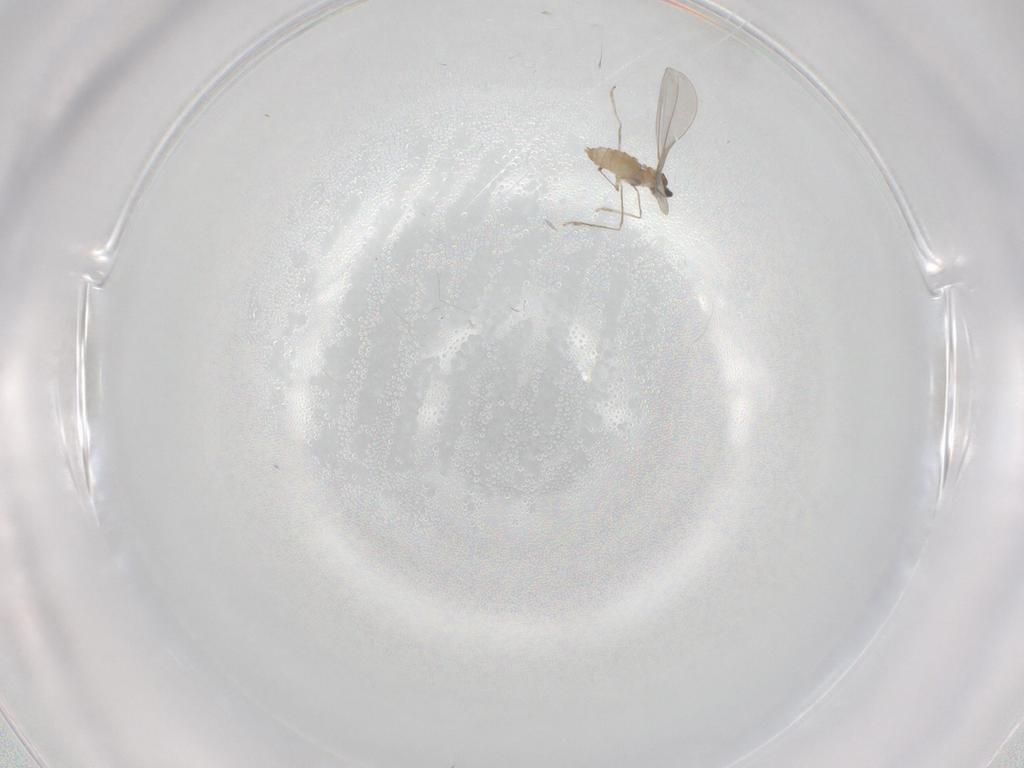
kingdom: Animalia
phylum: Arthropoda
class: Insecta
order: Diptera
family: Cecidomyiidae
